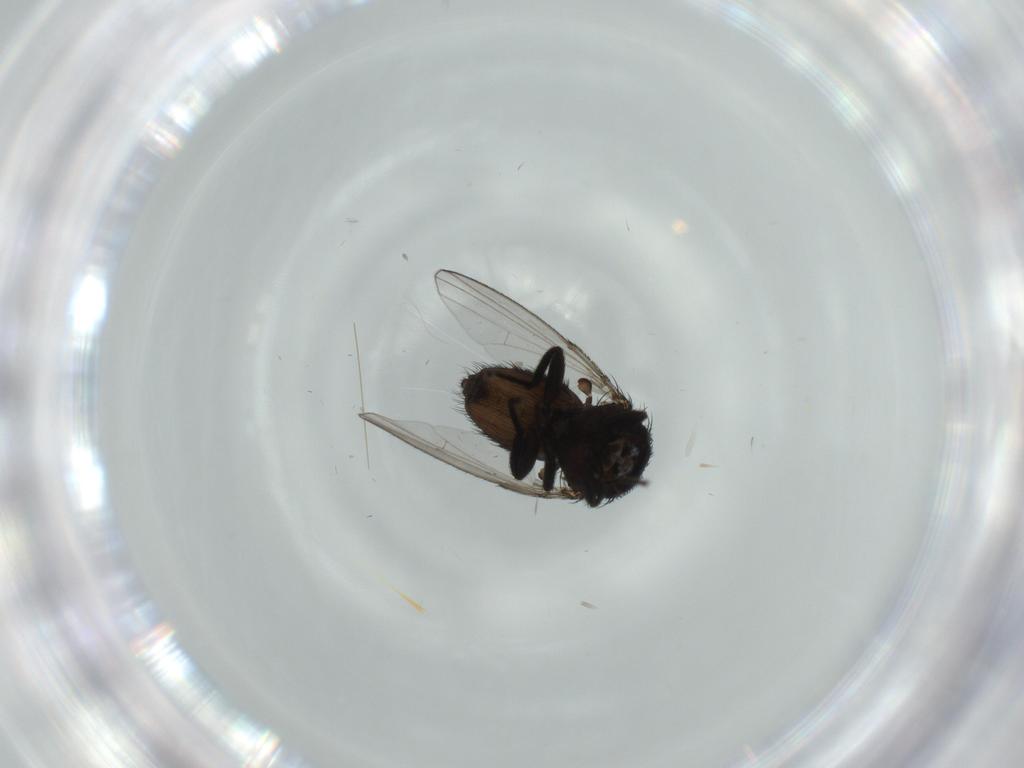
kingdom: Animalia
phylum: Arthropoda
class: Insecta
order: Diptera
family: Milichiidae
